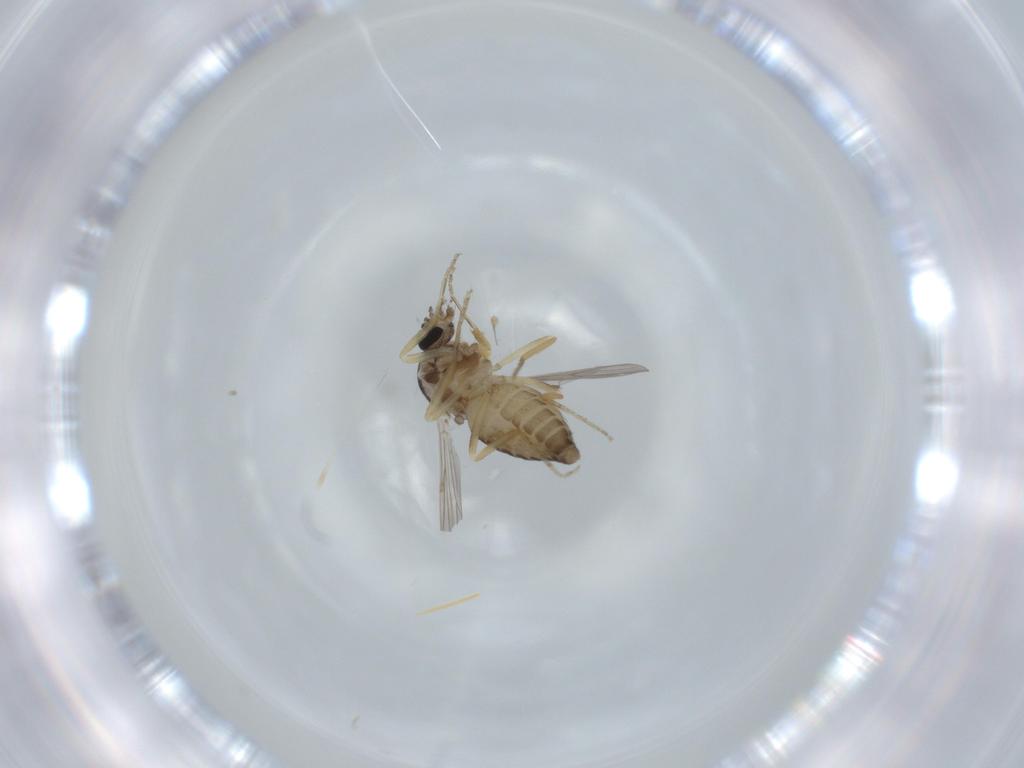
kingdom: Animalia
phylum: Arthropoda
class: Insecta
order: Diptera
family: Ceratopogonidae
